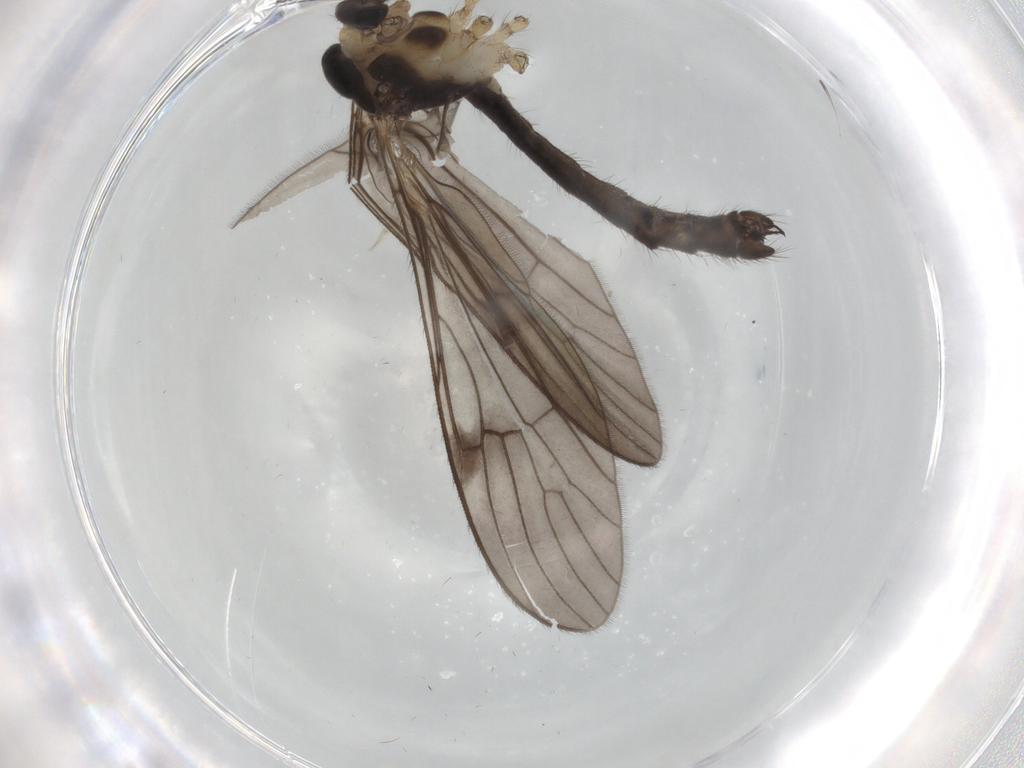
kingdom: Animalia
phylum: Arthropoda
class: Insecta
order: Diptera
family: Limoniidae
